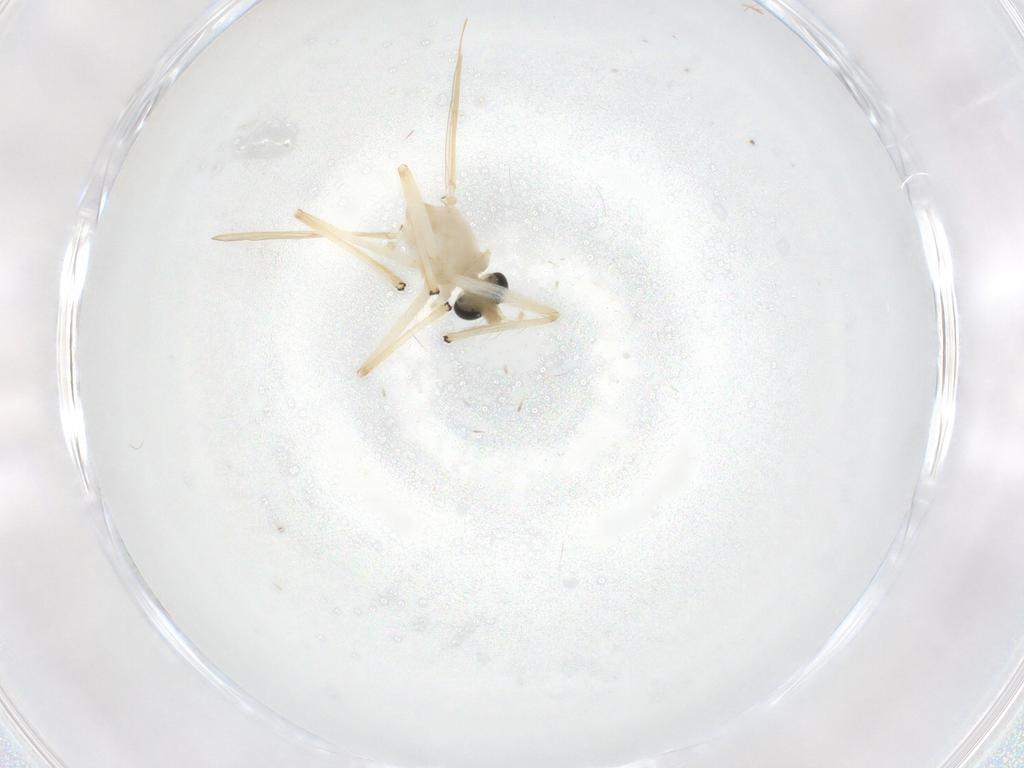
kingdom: Animalia
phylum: Arthropoda
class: Insecta
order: Diptera
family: Chironomidae
